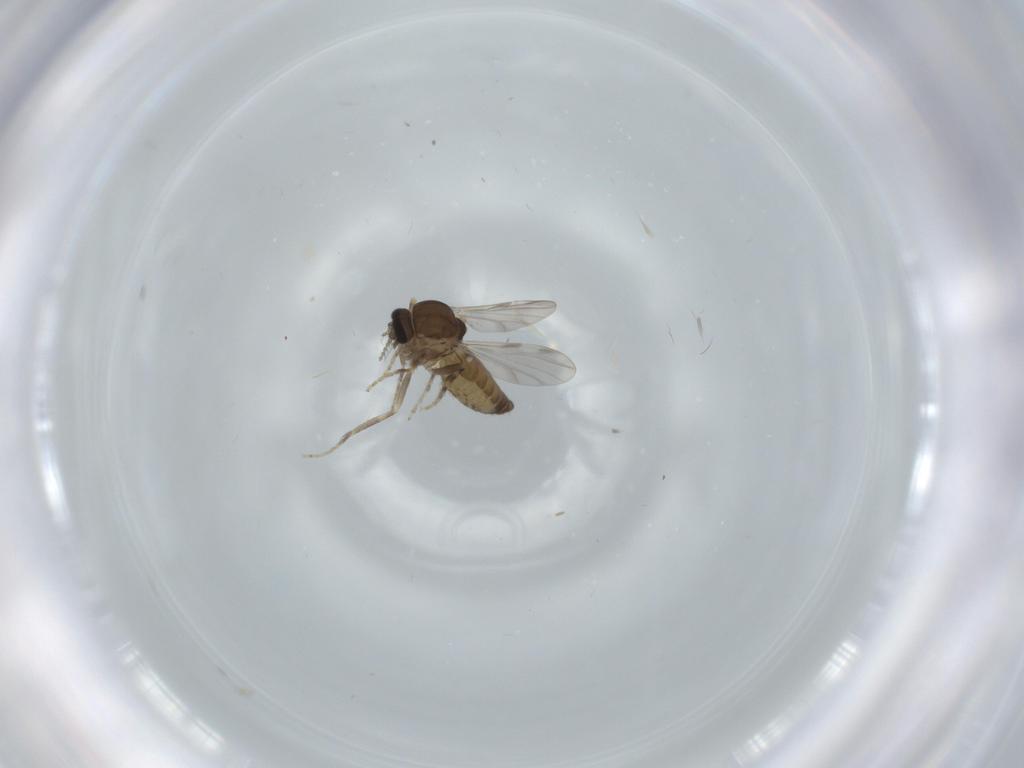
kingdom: Animalia
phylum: Arthropoda
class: Insecta
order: Diptera
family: Ceratopogonidae
